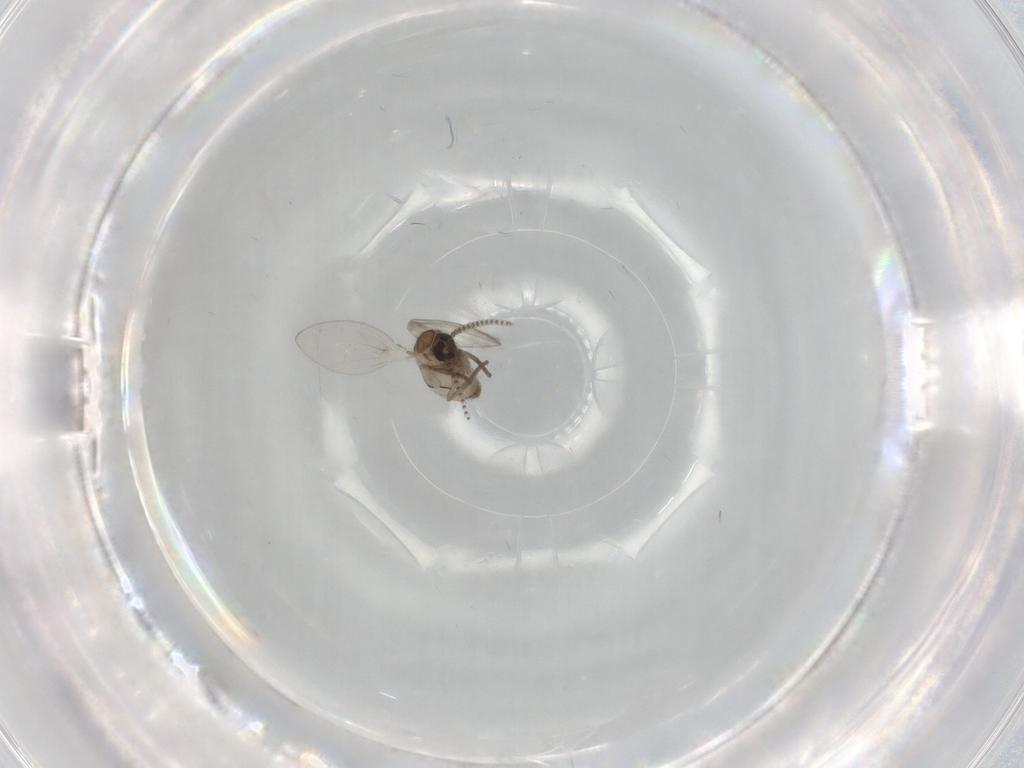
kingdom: Animalia
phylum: Arthropoda
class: Insecta
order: Diptera
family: Psychodidae
